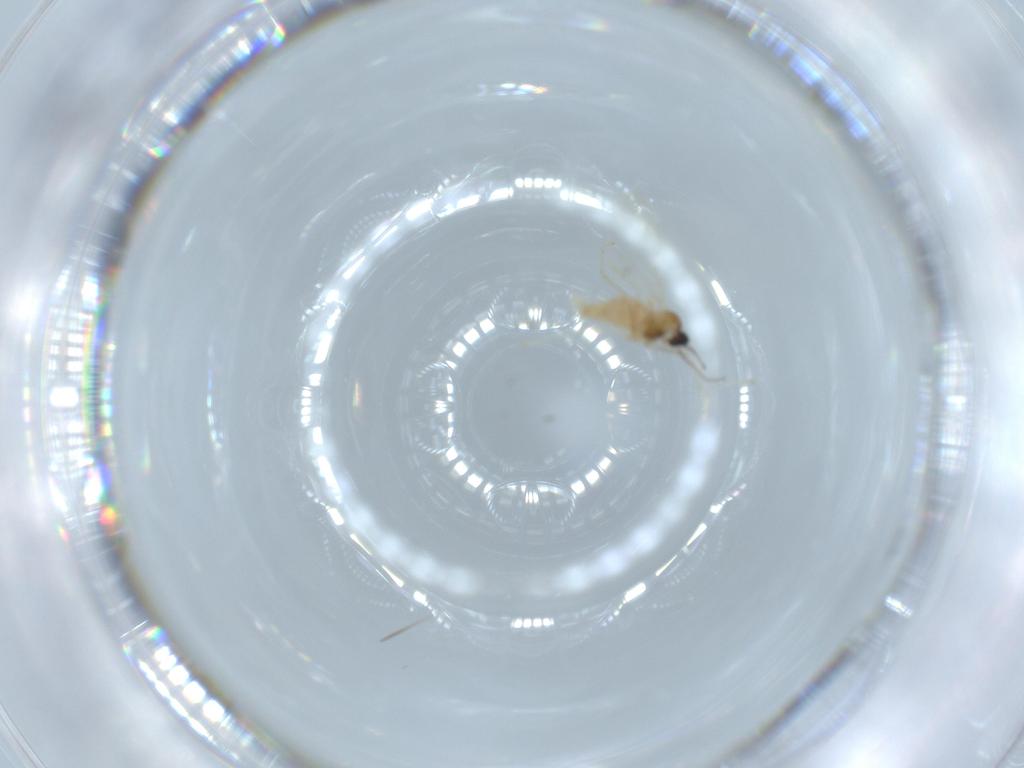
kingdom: Animalia
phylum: Arthropoda
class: Insecta
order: Diptera
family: Cecidomyiidae
